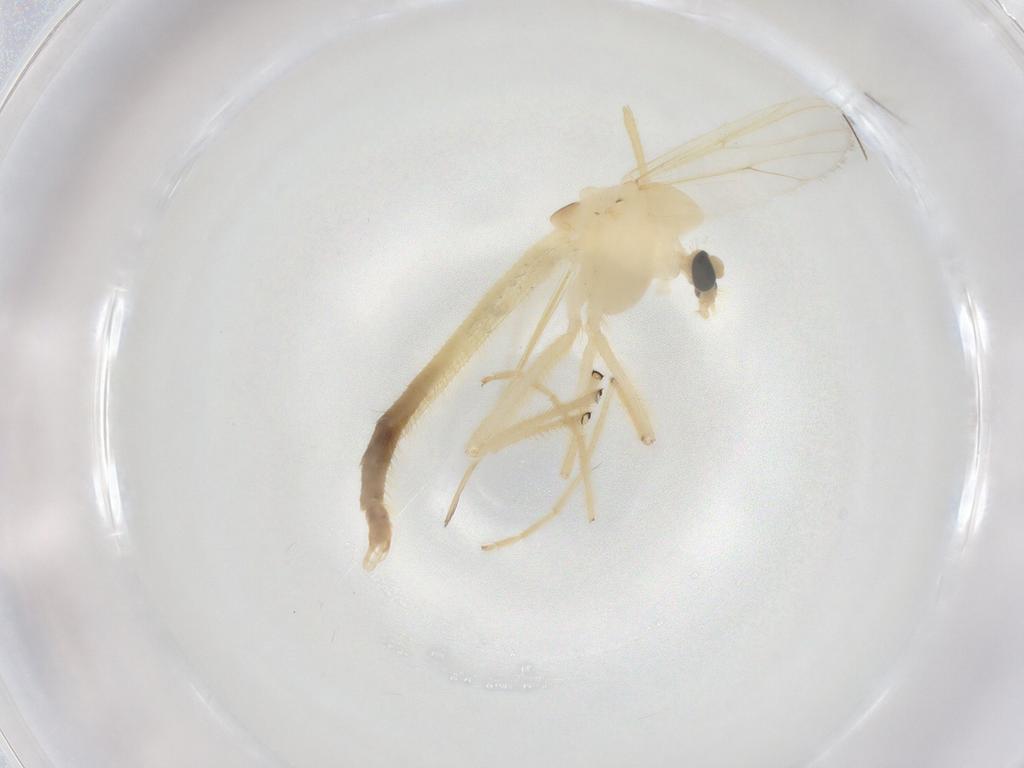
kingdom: Animalia
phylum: Arthropoda
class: Insecta
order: Diptera
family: Chironomidae
